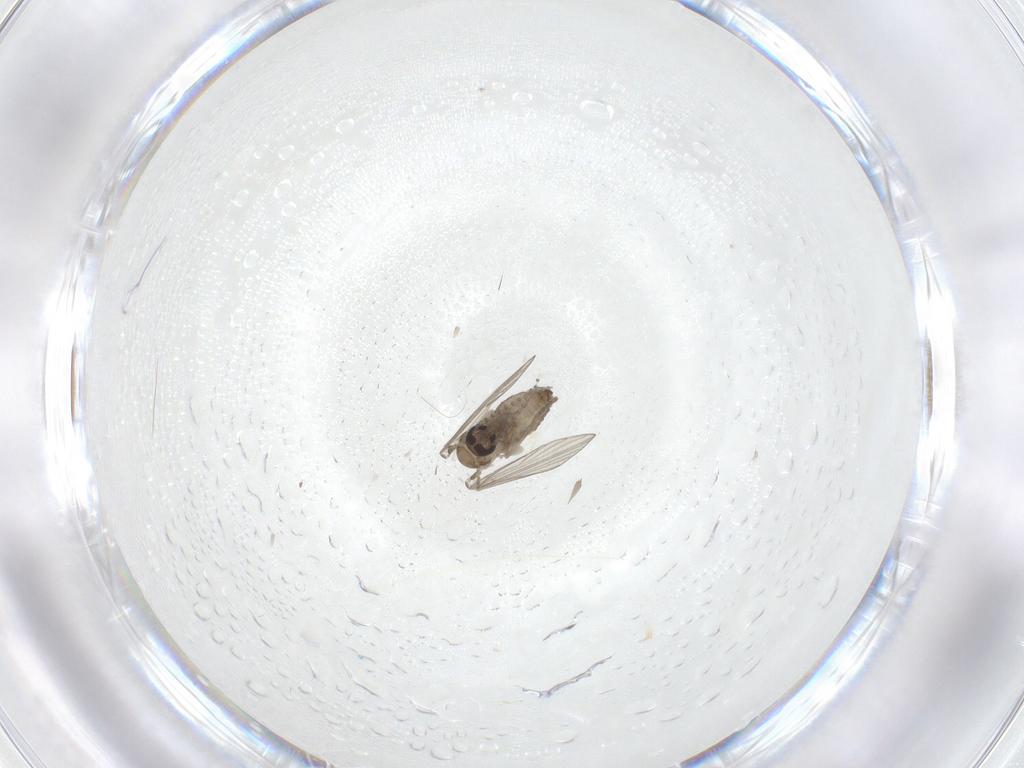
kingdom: Animalia
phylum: Arthropoda
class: Insecta
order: Diptera
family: Psychodidae
